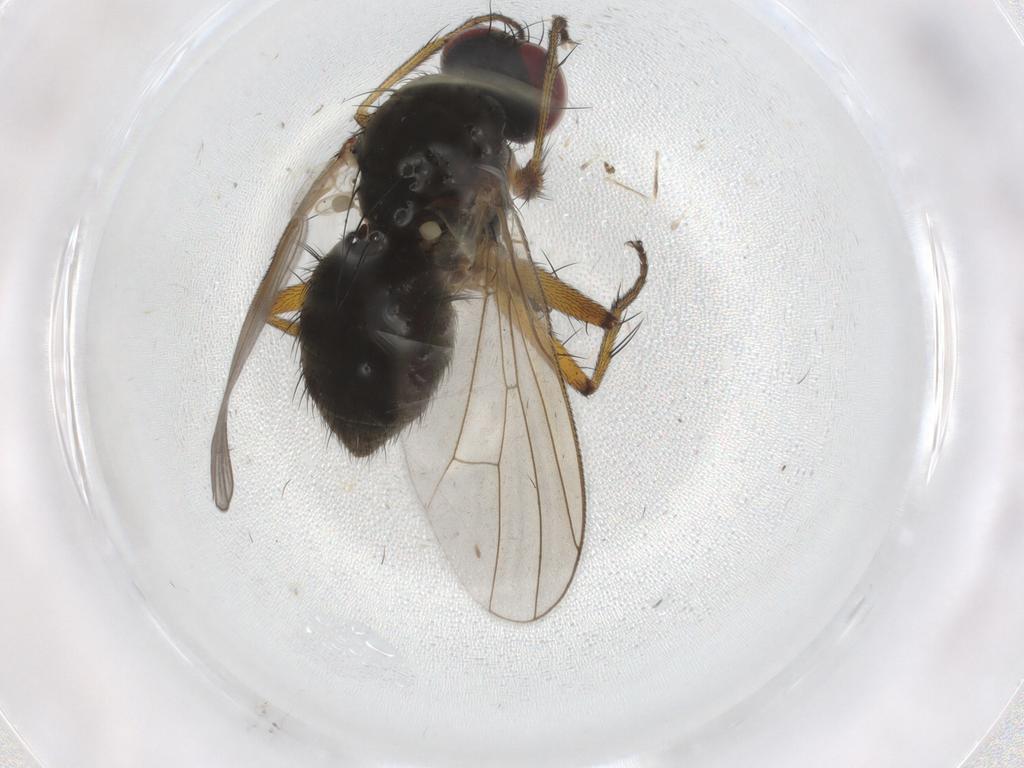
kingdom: Animalia
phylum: Arthropoda
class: Insecta
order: Diptera
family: Muscidae
